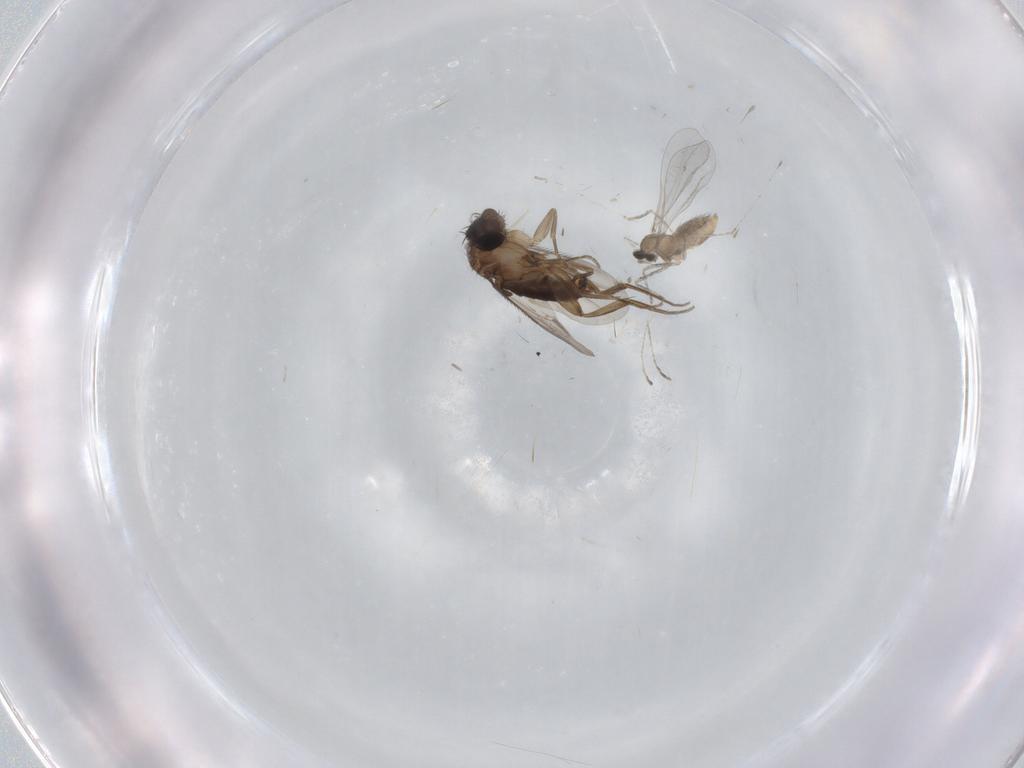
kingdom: Animalia
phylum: Arthropoda
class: Insecta
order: Diptera
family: Phoridae
